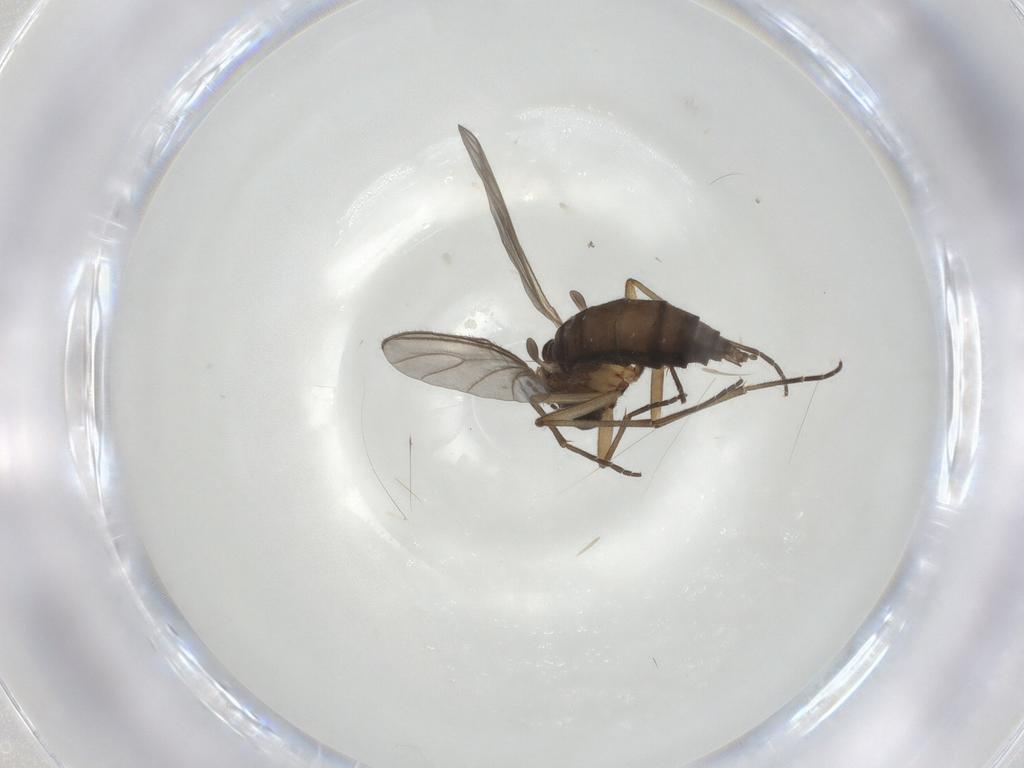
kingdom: Animalia
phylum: Arthropoda
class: Insecta
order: Diptera
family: Sciaridae
